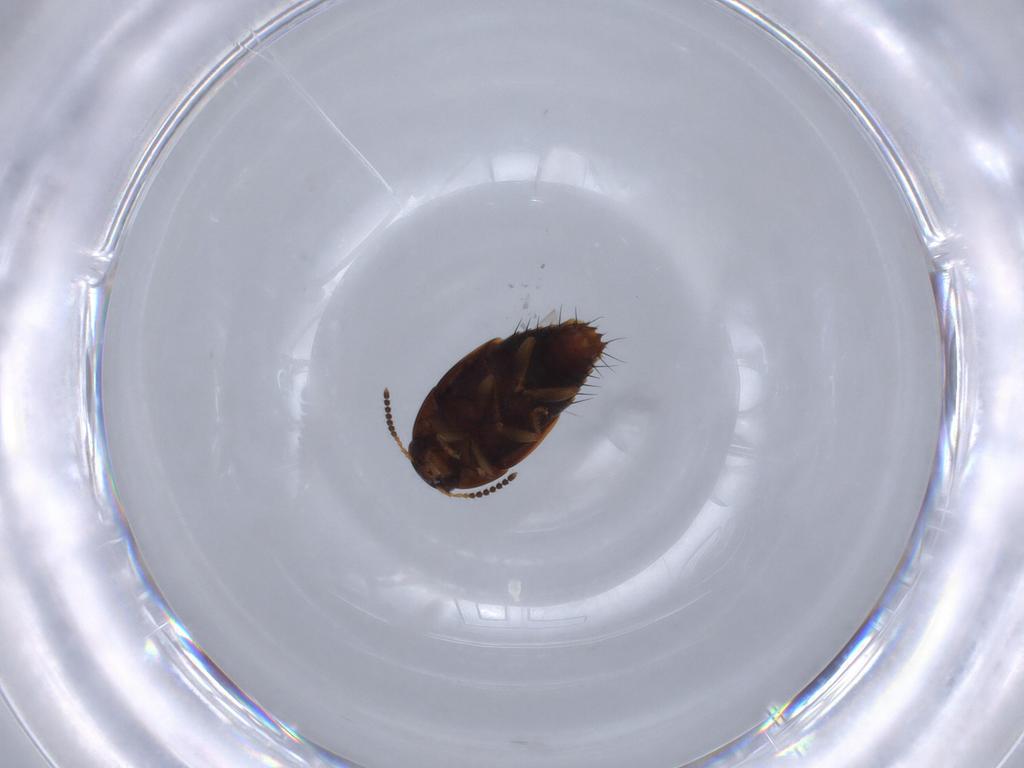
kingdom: Animalia
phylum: Arthropoda
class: Insecta
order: Coleoptera
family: Staphylinidae
